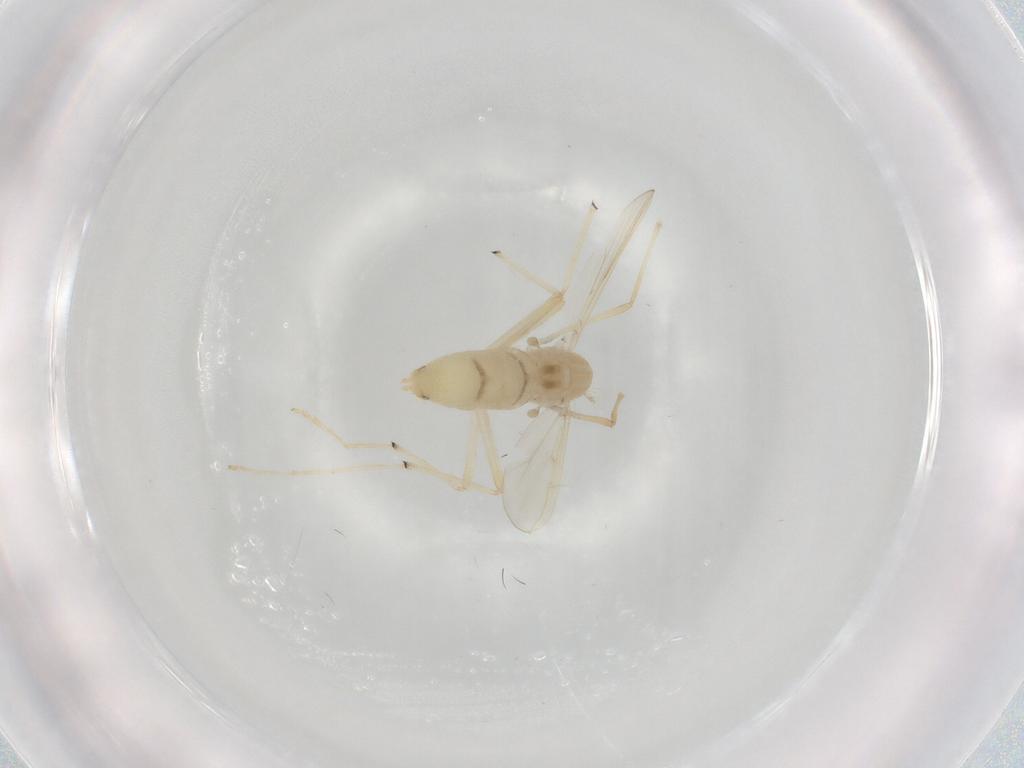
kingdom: Animalia
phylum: Arthropoda
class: Insecta
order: Diptera
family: Chironomidae
